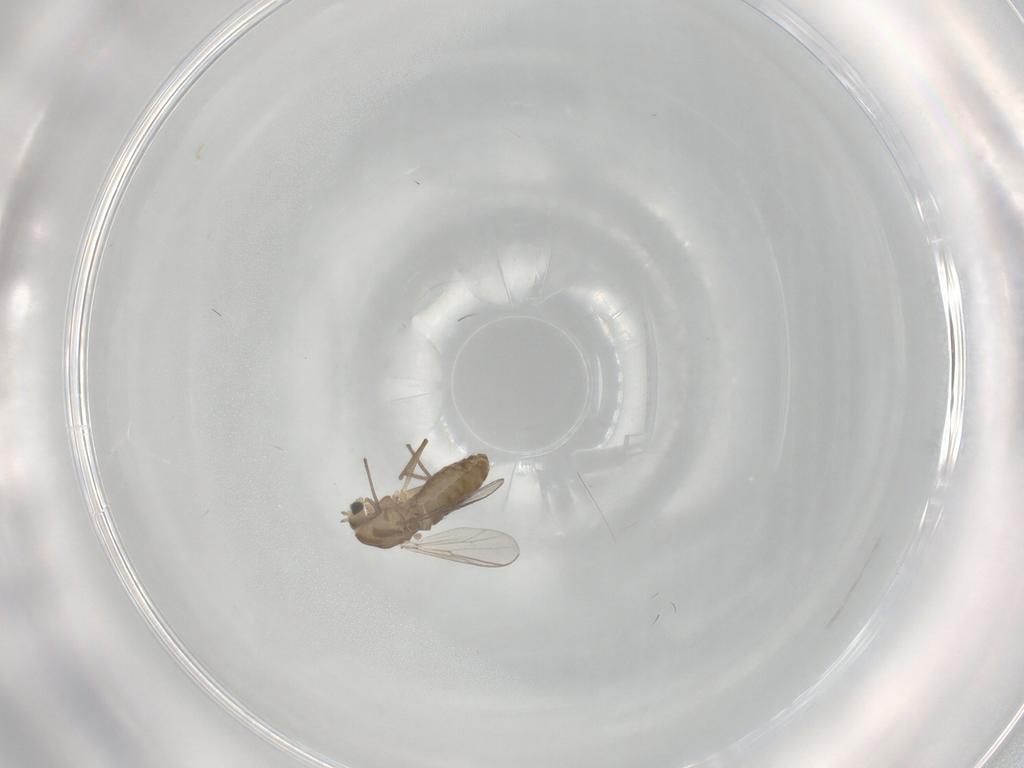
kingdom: Animalia
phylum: Arthropoda
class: Insecta
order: Diptera
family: Chironomidae
